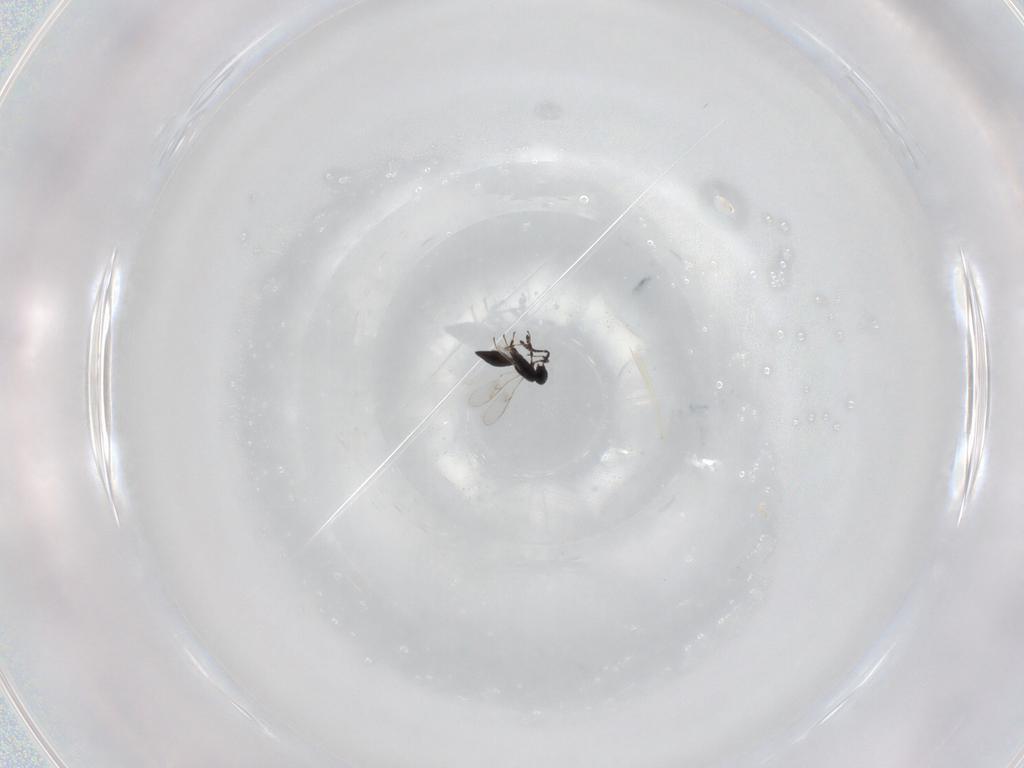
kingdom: Animalia
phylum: Arthropoda
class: Insecta
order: Hymenoptera
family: Scelionidae
